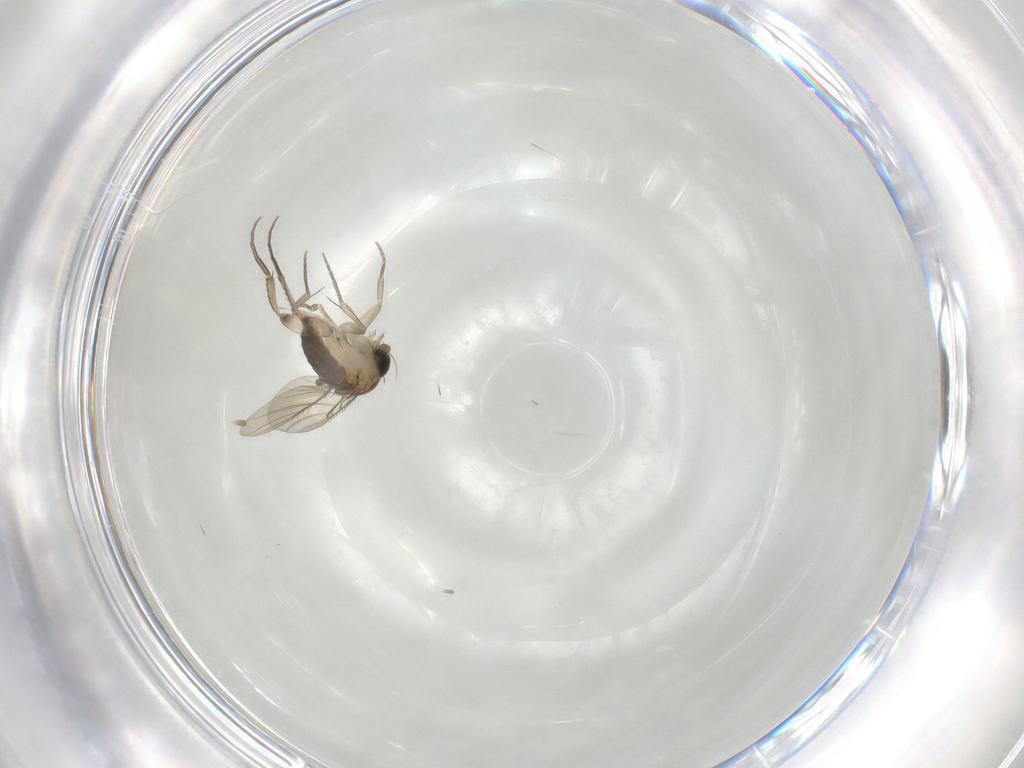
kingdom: Animalia
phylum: Arthropoda
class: Insecta
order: Diptera
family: Phoridae
